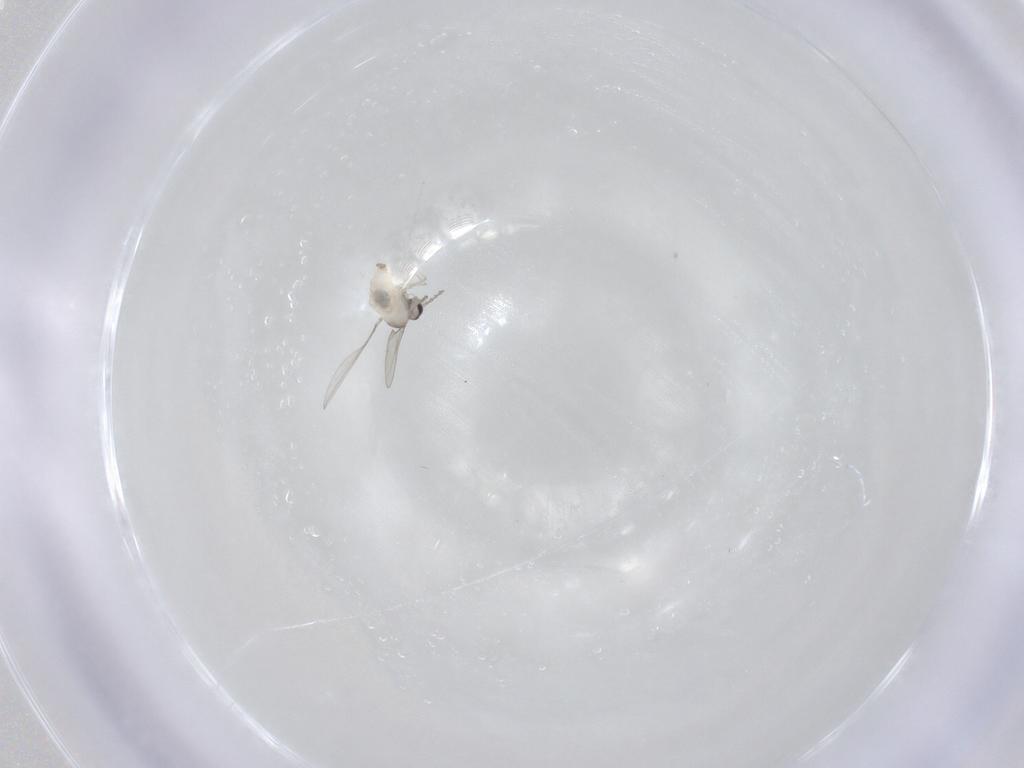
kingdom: Animalia
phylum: Arthropoda
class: Insecta
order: Diptera
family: Cecidomyiidae
